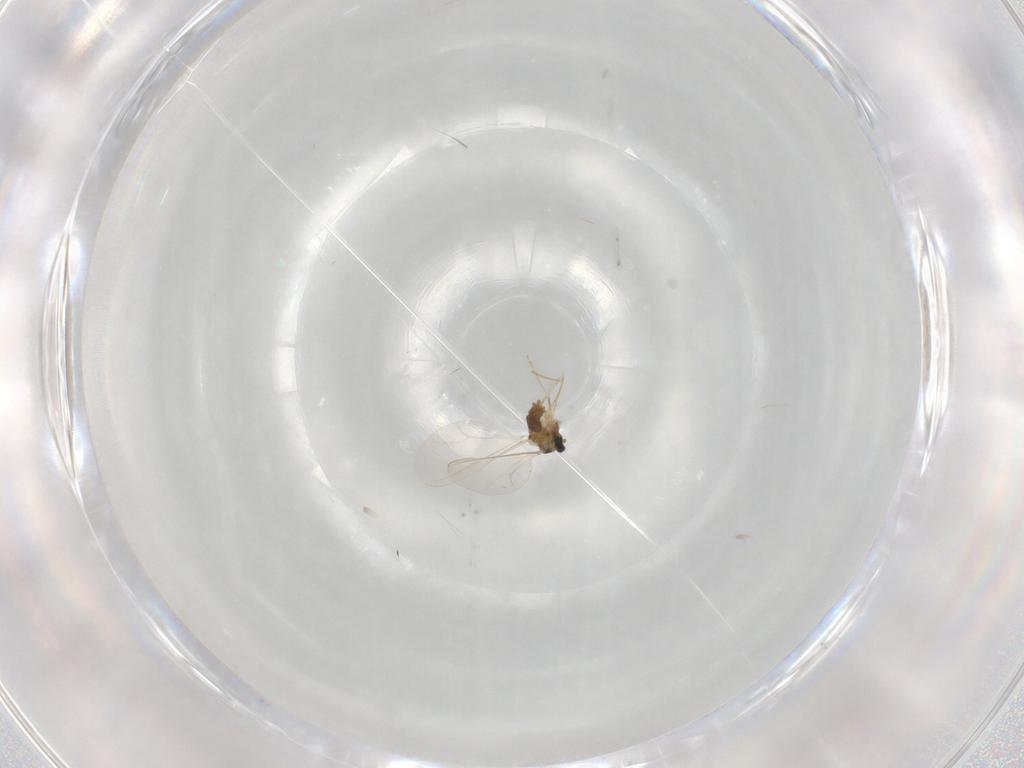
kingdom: Animalia
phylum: Arthropoda
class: Insecta
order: Diptera
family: Cecidomyiidae
